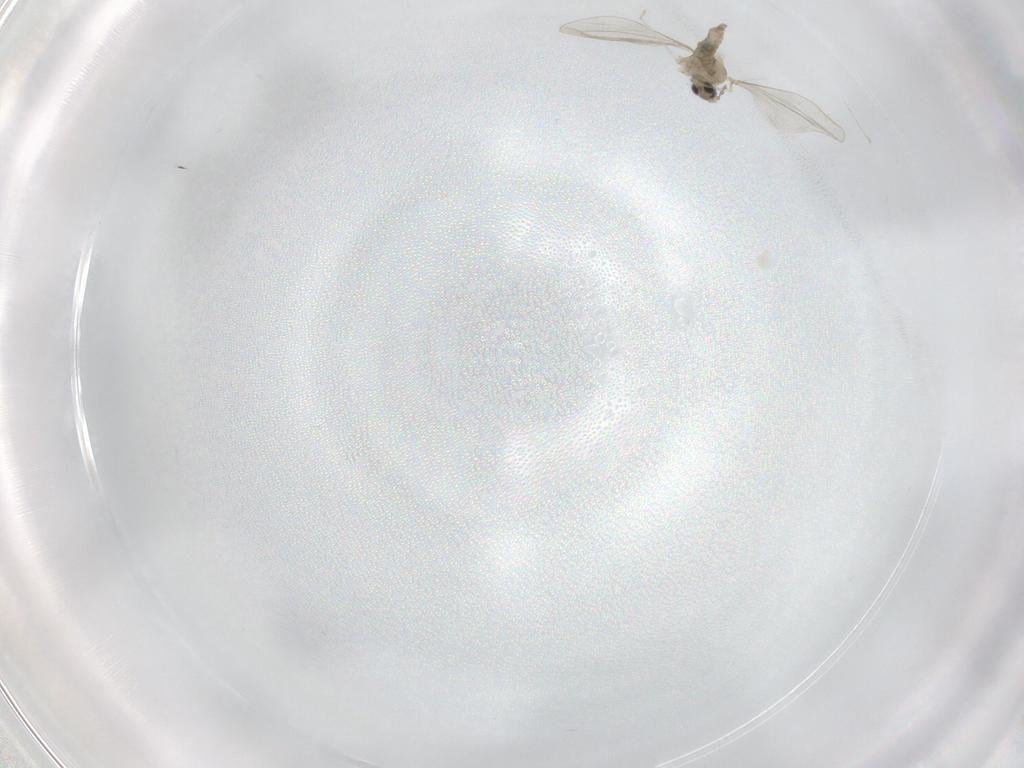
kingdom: Animalia
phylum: Arthropoda
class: Insecta
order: Diptera
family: Cecidomyiidae
